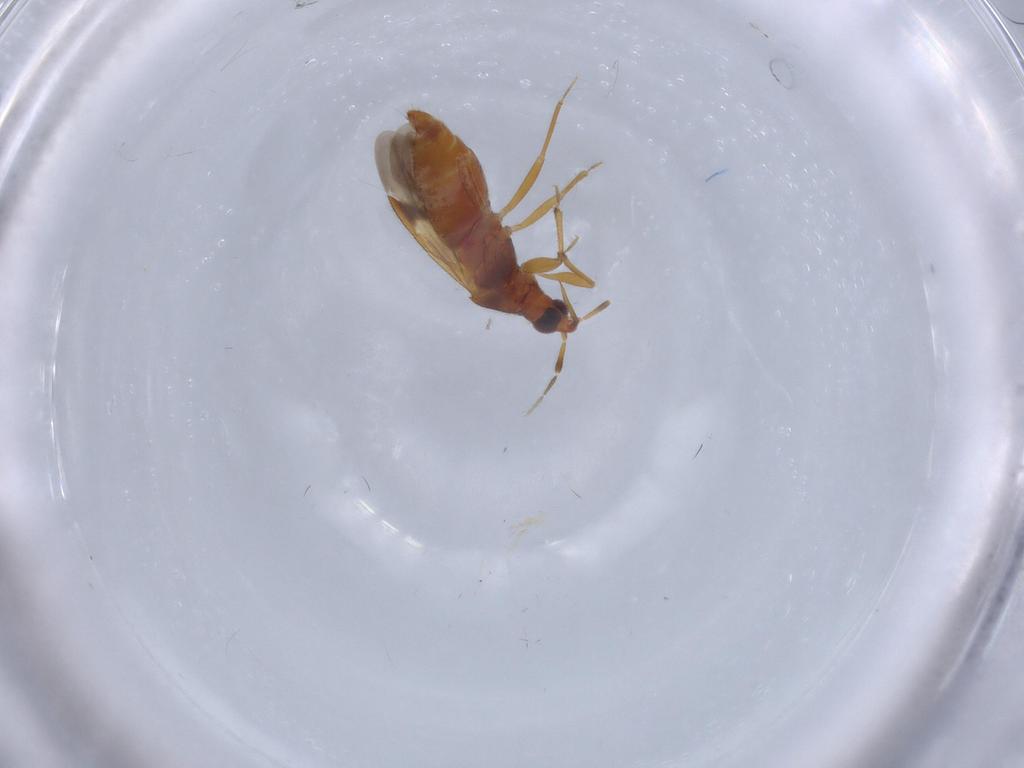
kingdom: Animalia
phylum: Arthropoda
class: Insecta
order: Hemiptera
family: Anthocoridae
